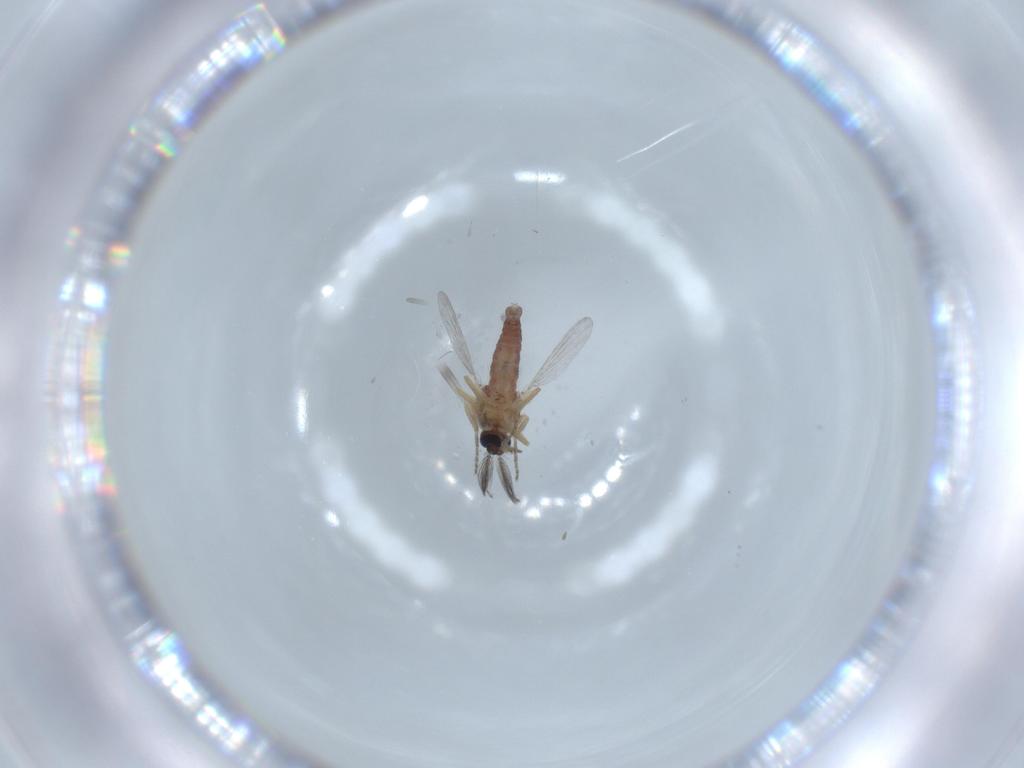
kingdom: Animalia
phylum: Arthropoda
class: Insecta
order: Diptera
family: Ceratopogonidae
